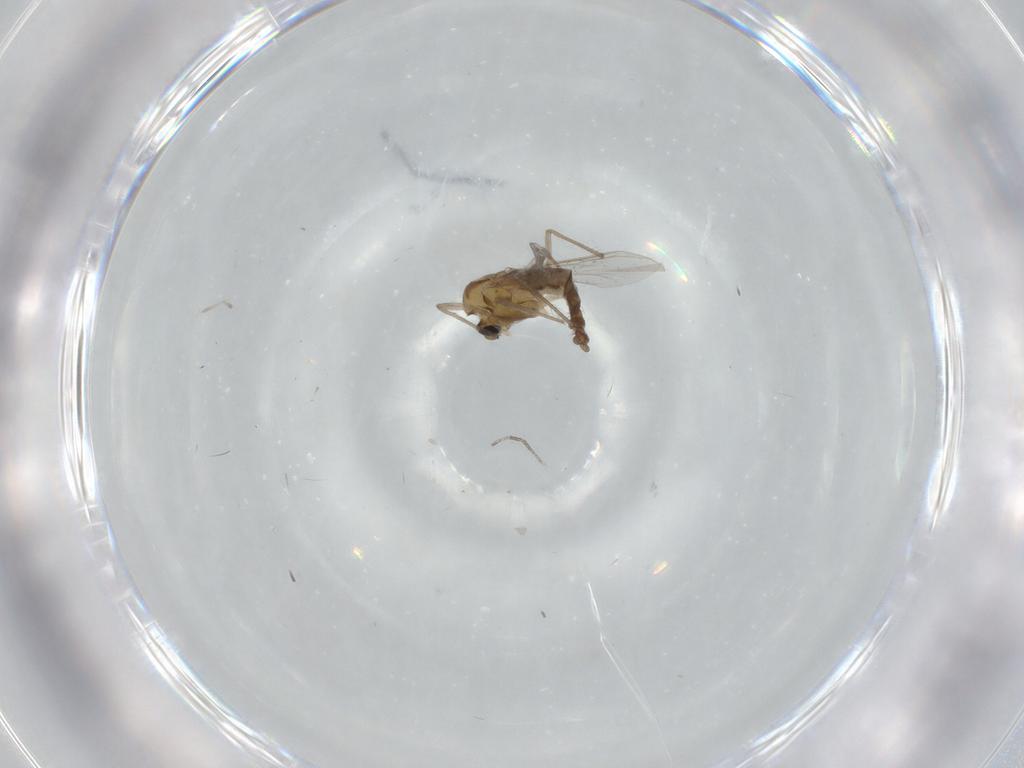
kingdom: Animalia
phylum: Arthropoda
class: Insecta
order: Diptera
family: Chironomidae
